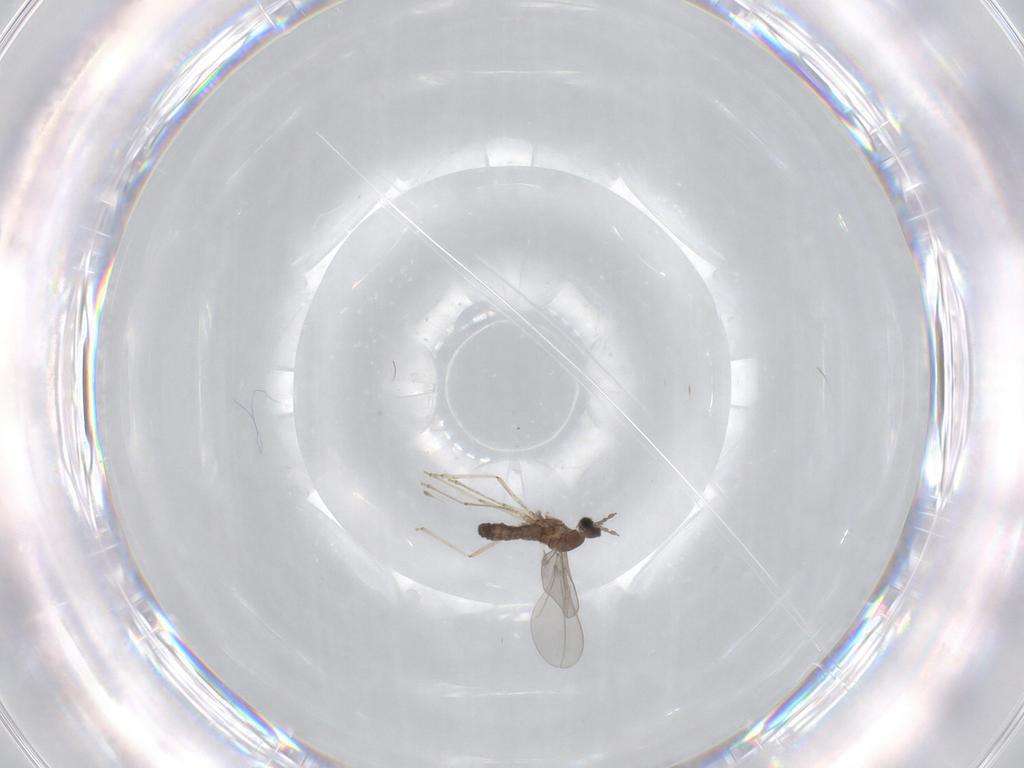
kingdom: Animalia
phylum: Arthropoda
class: Insecta
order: Diptera
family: Cecidomyiidae
